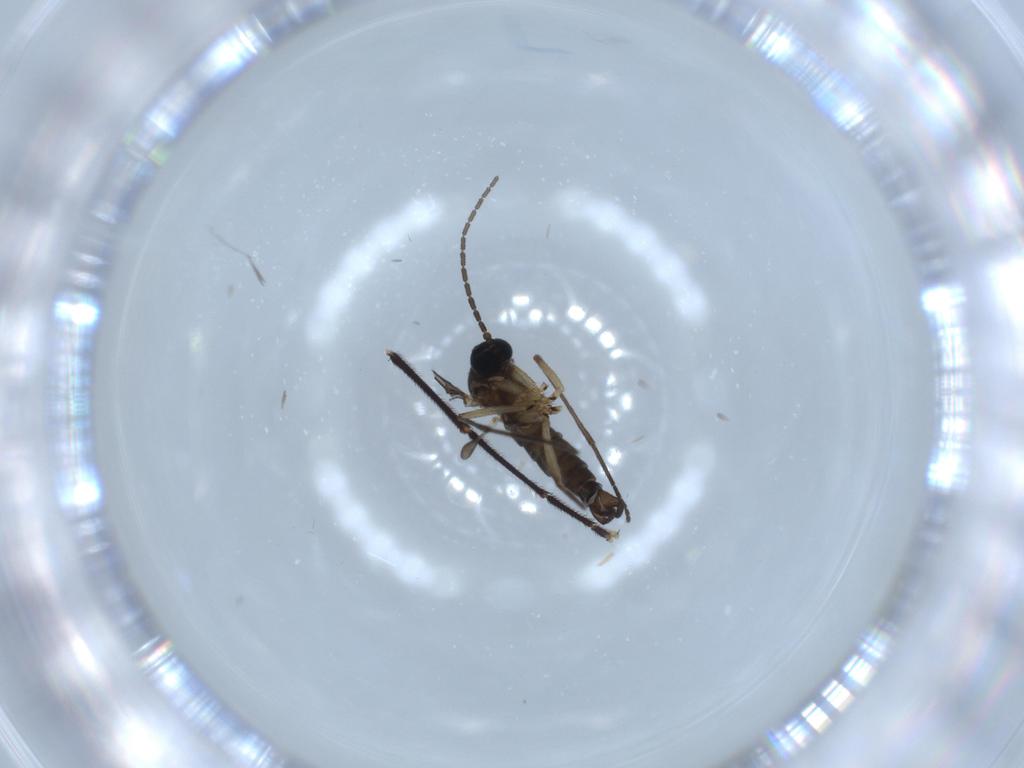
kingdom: Animalia
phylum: Arthropoda
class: Insecta
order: Diptera
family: Sciaridae
